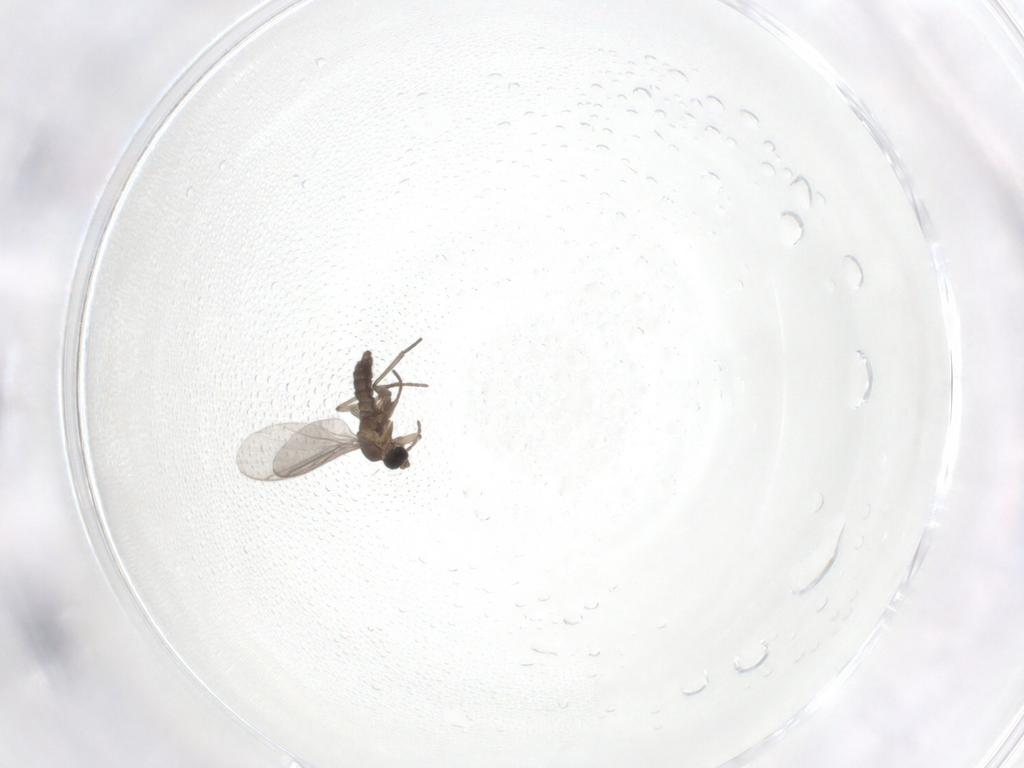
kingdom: Animalia
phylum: Arthropoda
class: Insecta
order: Diptera
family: Sciaridae
